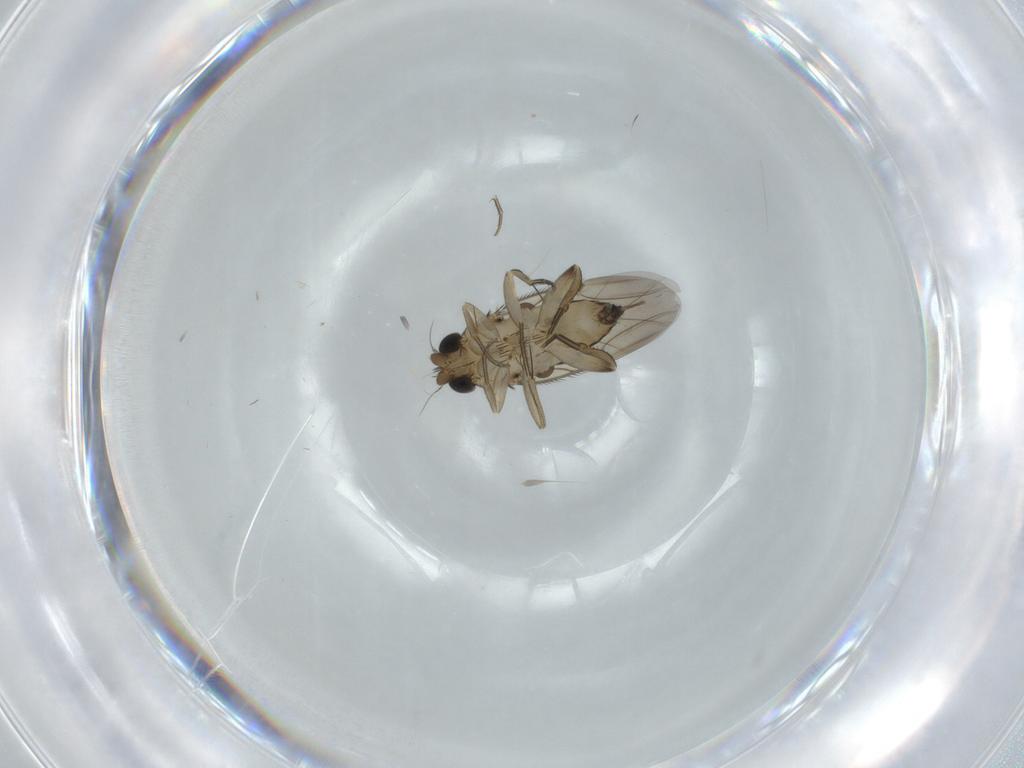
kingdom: Animalia
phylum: Arthropoda
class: Insecta
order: Diptera
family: Phoridae
